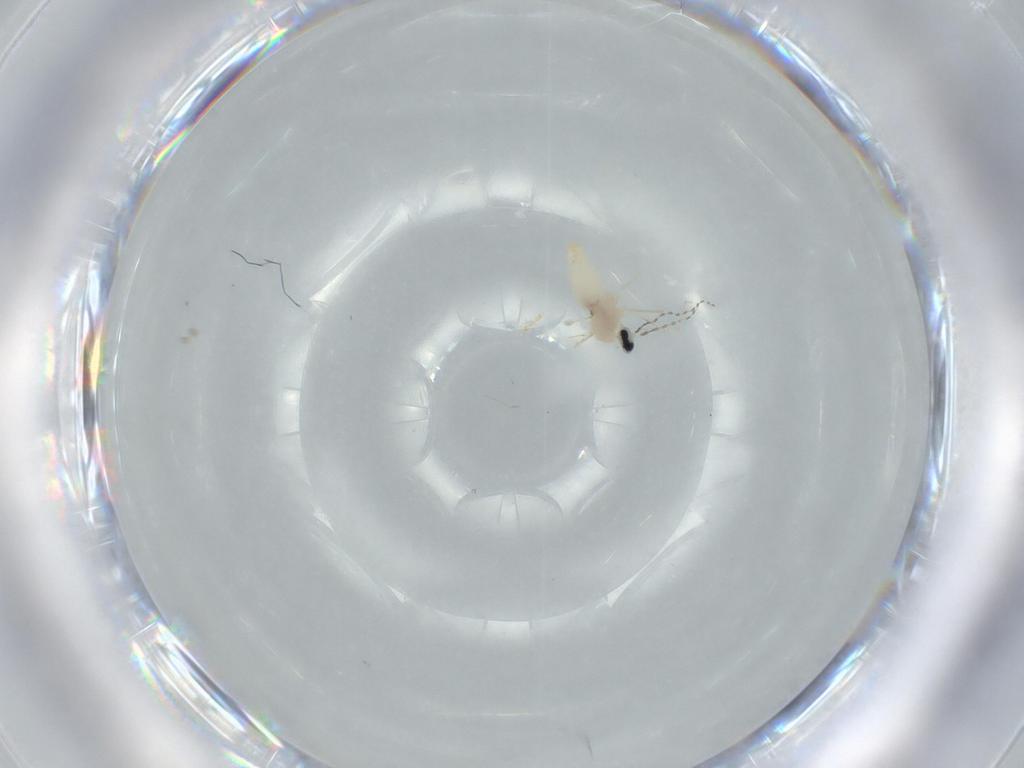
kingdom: Animalia
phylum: Arthropoda
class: Insecta
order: Diptera
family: Cecidomyiidae
